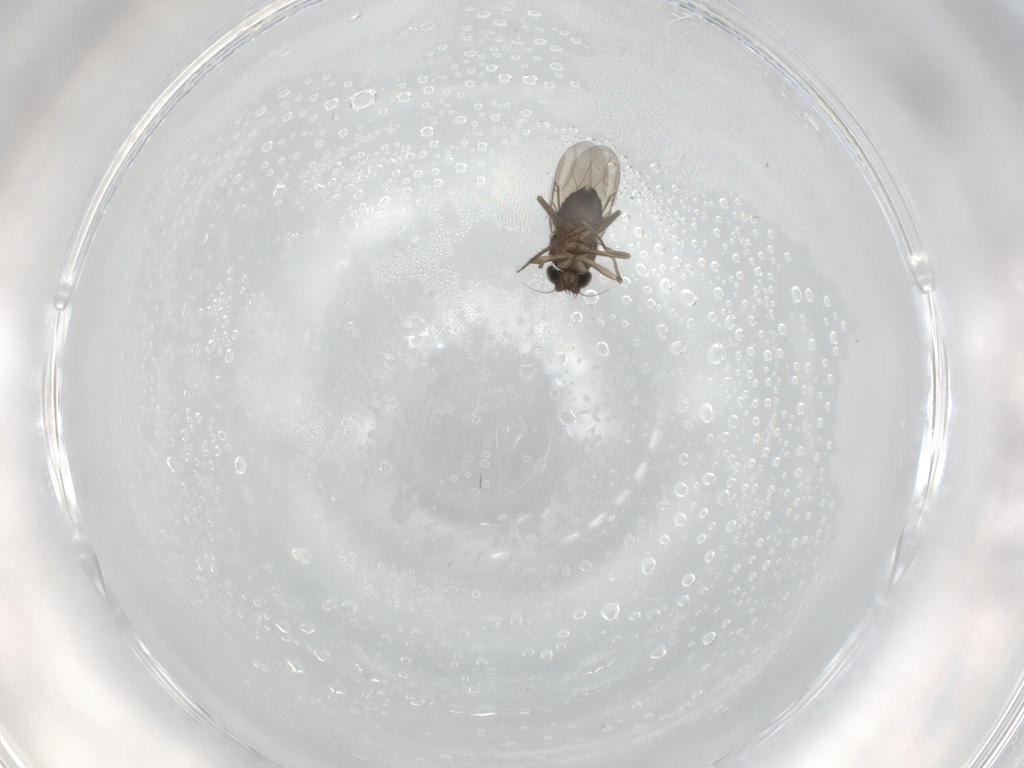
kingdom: Animalia
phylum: Arthropoda
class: Insecta
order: Diptera
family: Phoridae
